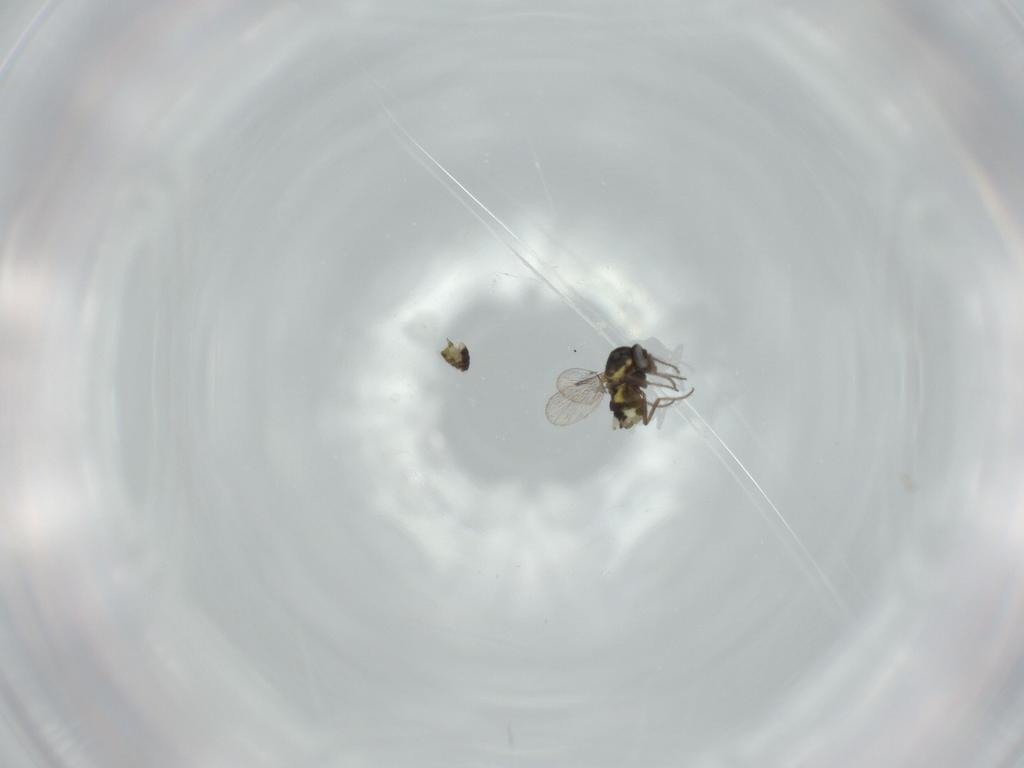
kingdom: Animalia
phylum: Arthropoda
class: Insecta
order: Diptera
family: Cecidomyiidae
